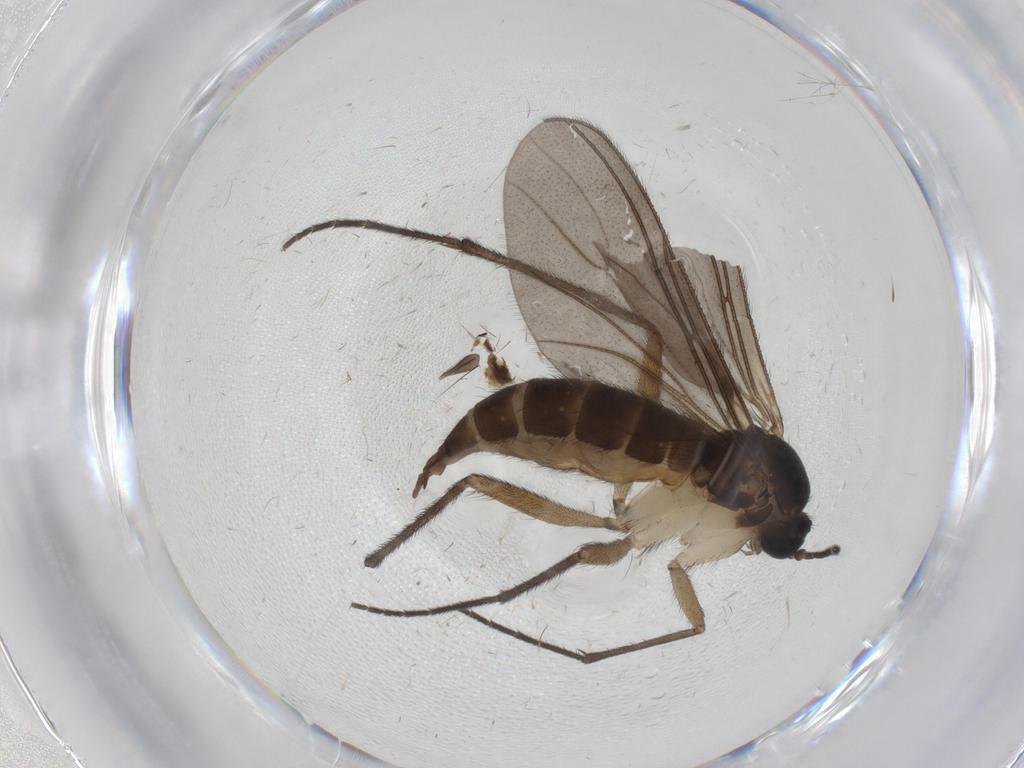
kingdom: Animalia
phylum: Arthropoda
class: Insecta
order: Diptera
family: Sciaridae
